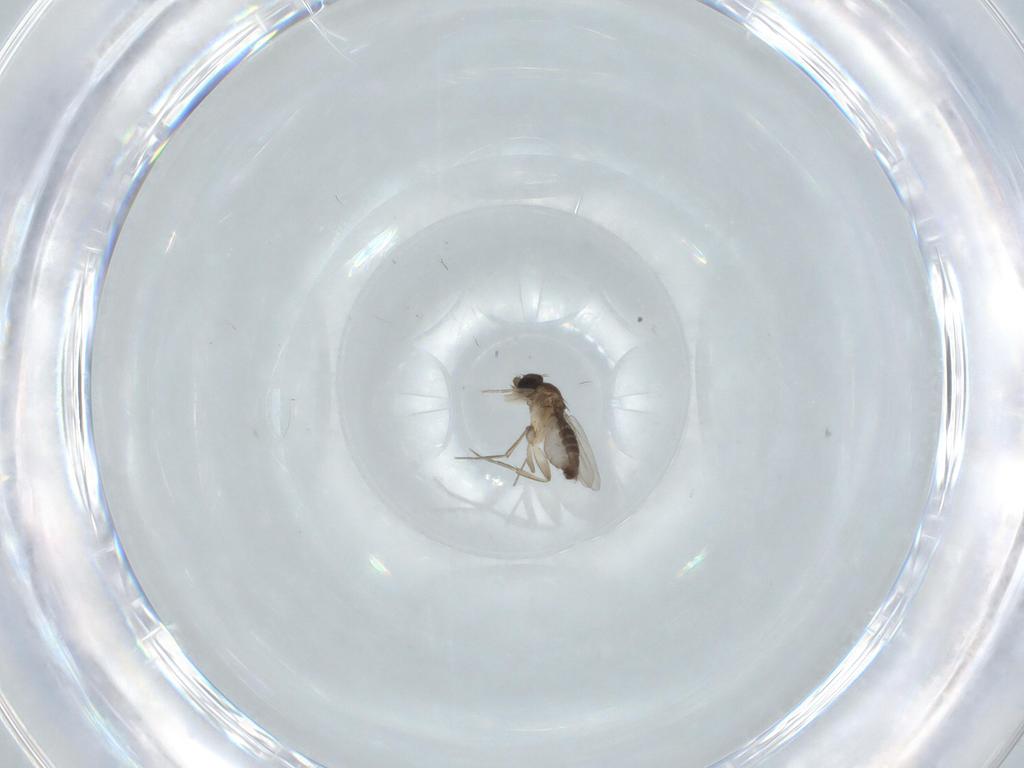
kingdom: Animalia
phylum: Arthropoda
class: Insecta
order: Diptera
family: Phoridae
